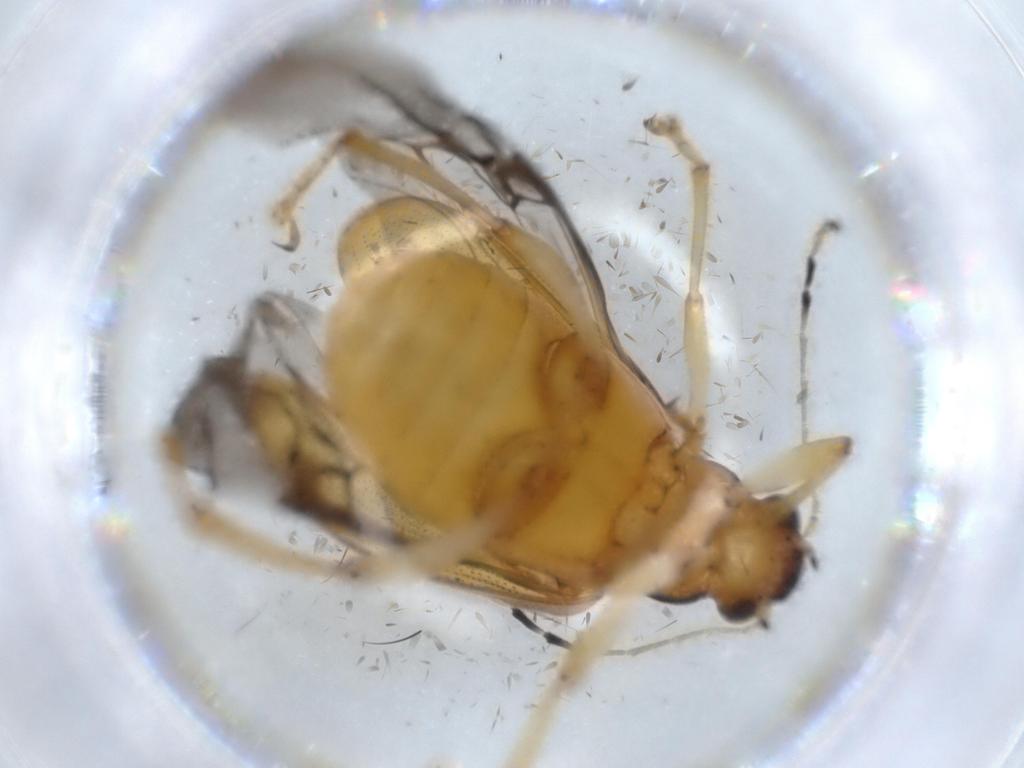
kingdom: Animalia
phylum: Arthropoda
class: Insecta
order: Coleoptera
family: Chrysomelidae
